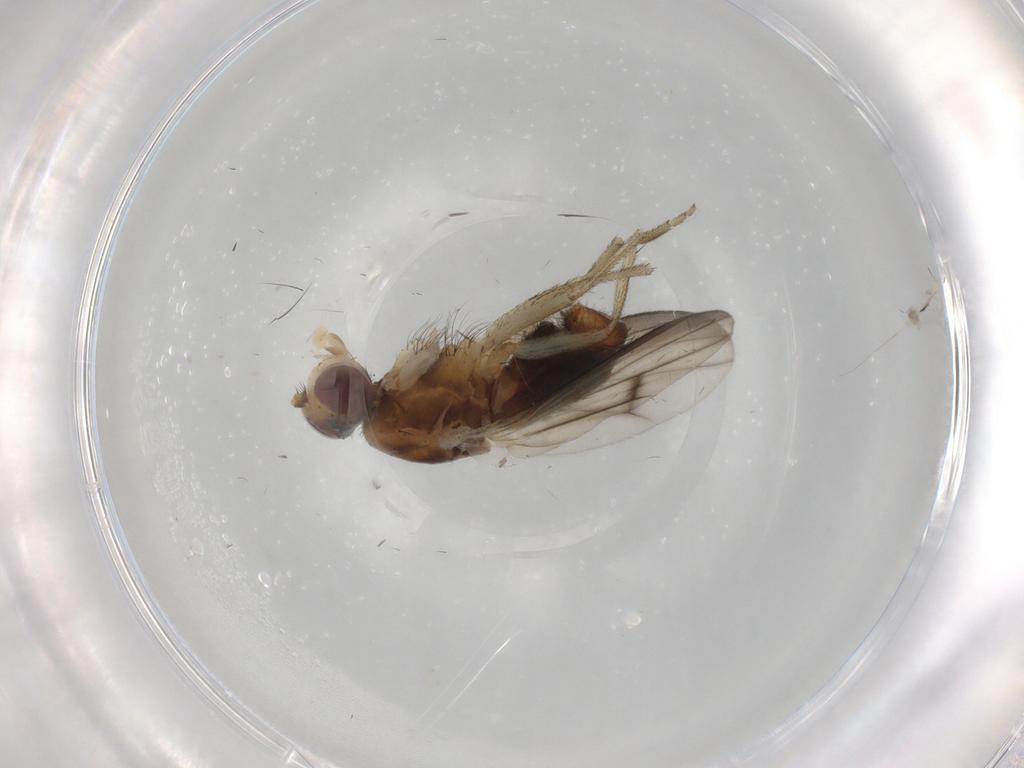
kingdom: Animalia
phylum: Arthropoda
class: Insecta
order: Diptera
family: Heleomyzidae
